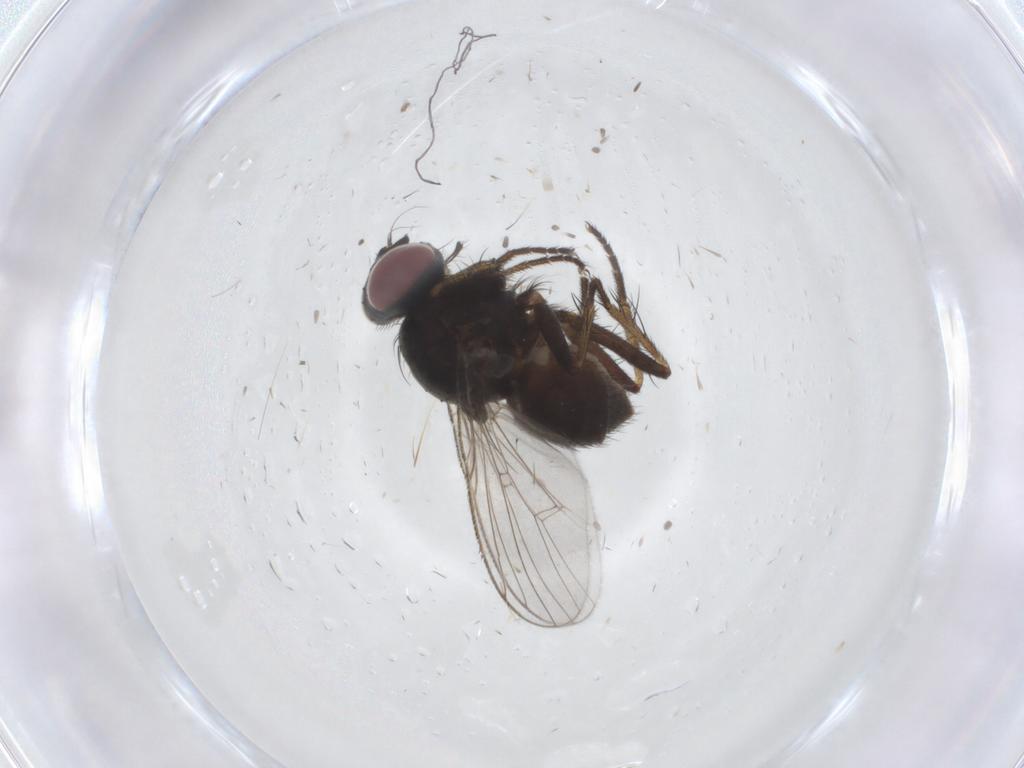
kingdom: Animalia
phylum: Arthropoda
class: Insecta
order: Diptera
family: Muscidae
